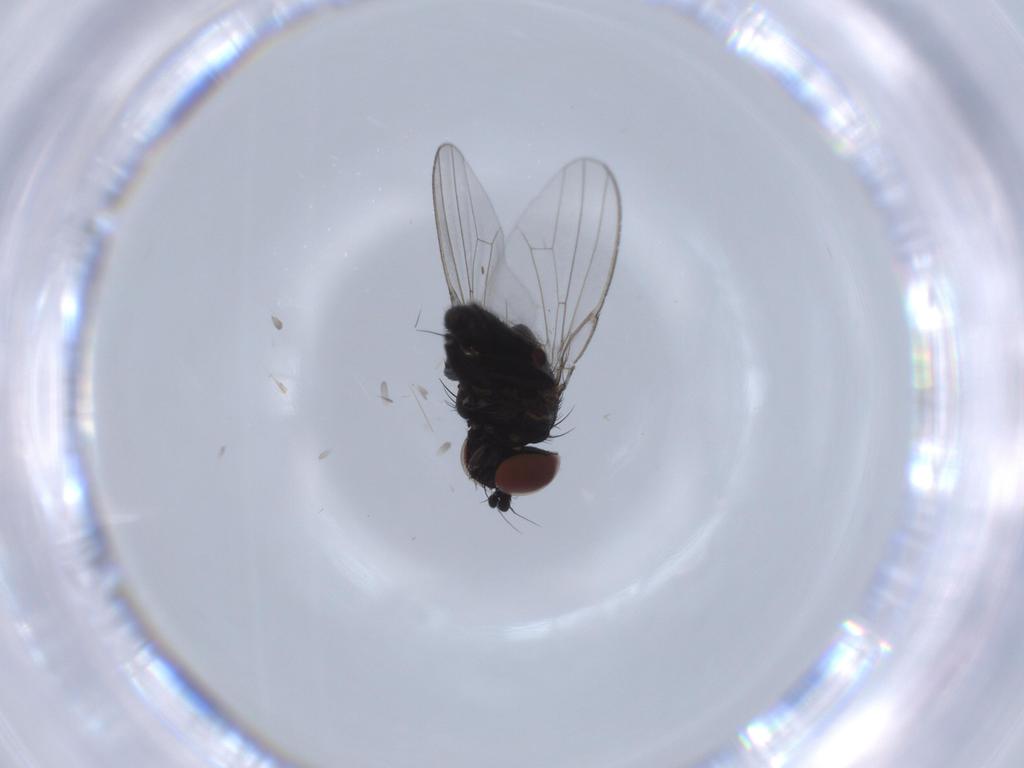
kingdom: Animalia
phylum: Arthropoda
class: Insecta
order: Diptera
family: Milichiidae
